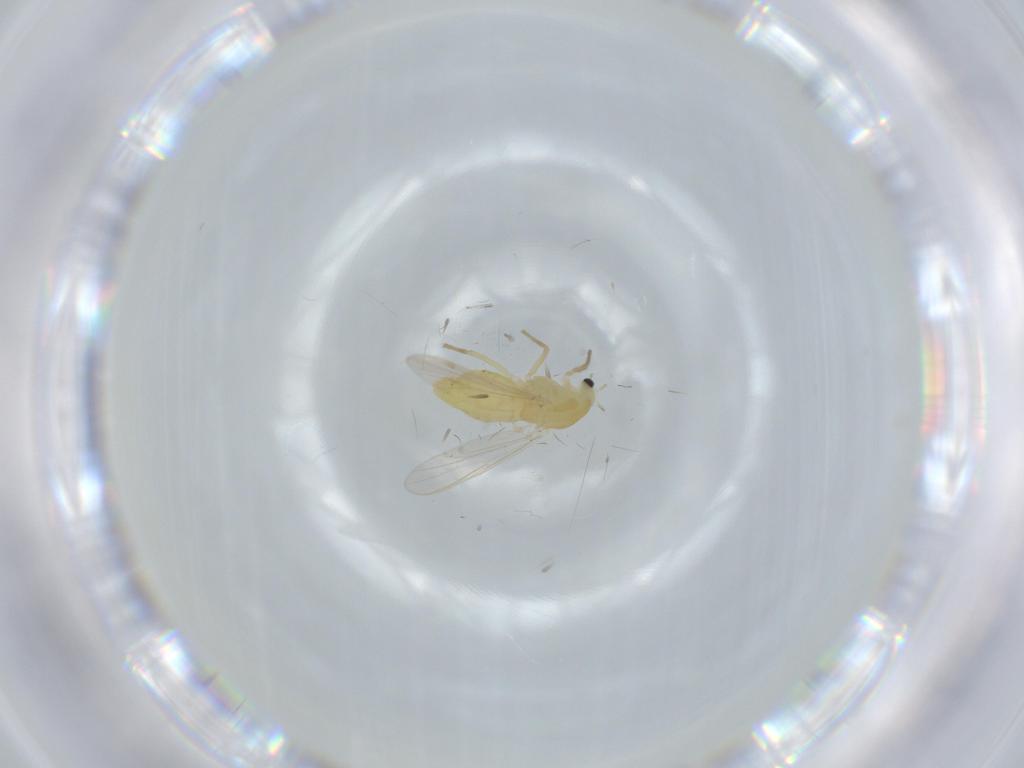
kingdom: Animalia
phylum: Arthropoda
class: Insecta
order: Diptera
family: Chironomidae
